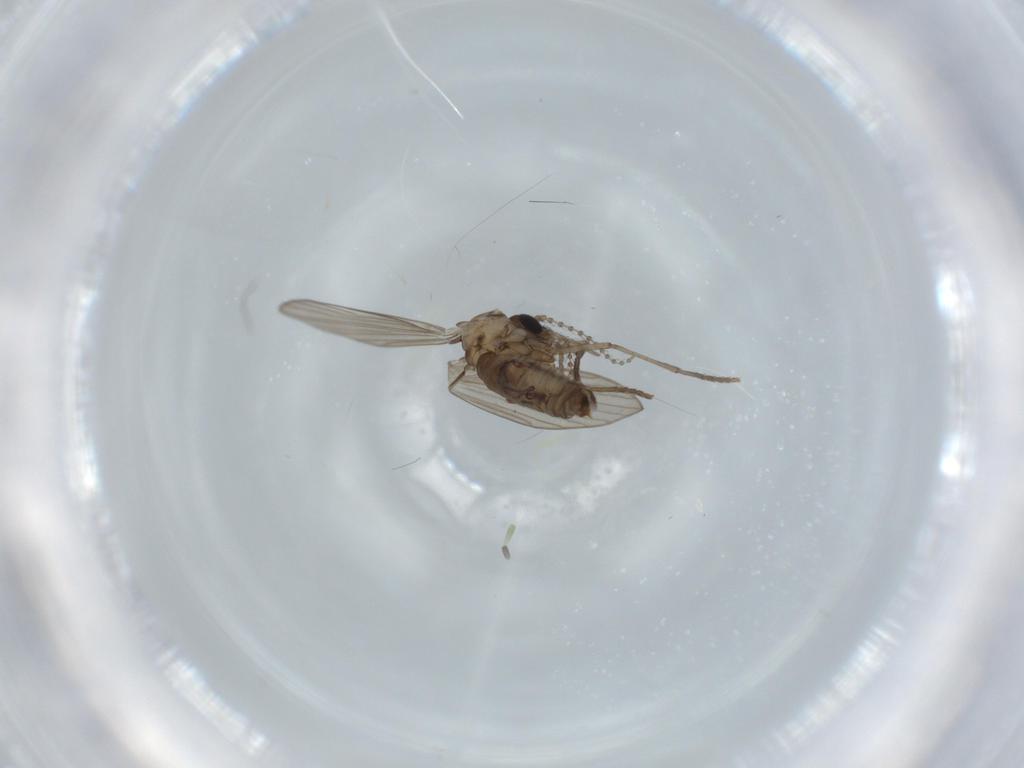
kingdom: Animalia
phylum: Arthropoda
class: Insecta
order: Diptera
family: Psychodidae
